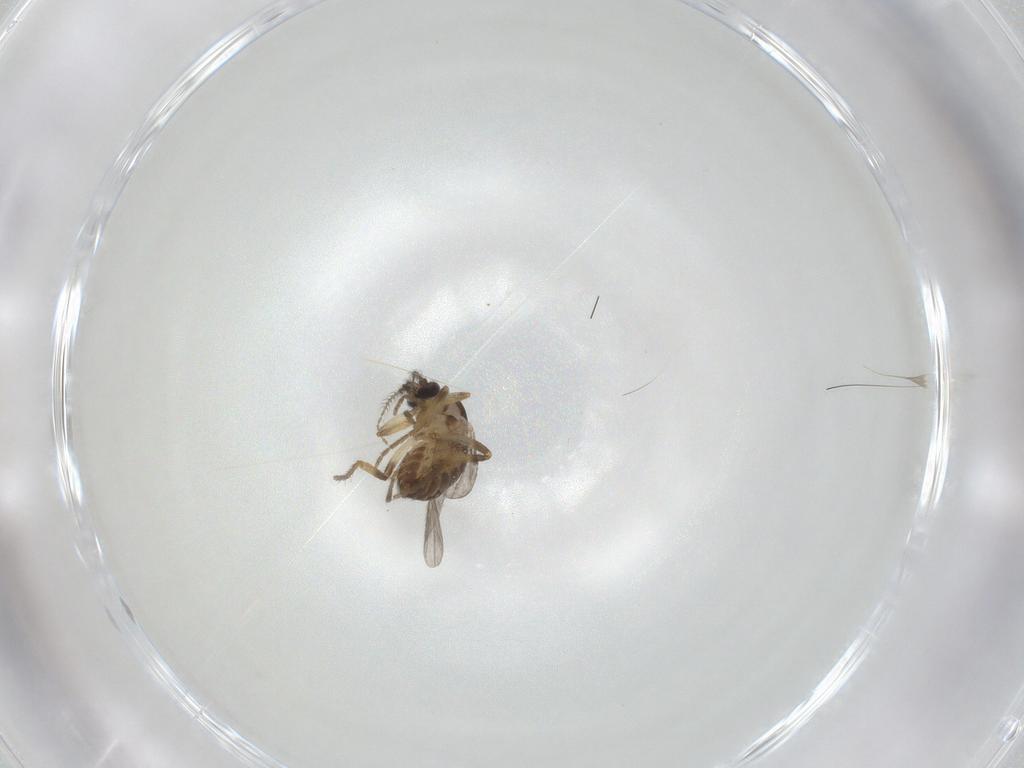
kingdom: Animalia
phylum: Arthropoda
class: Insecta
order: Diptera
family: Ceratopogonidae
